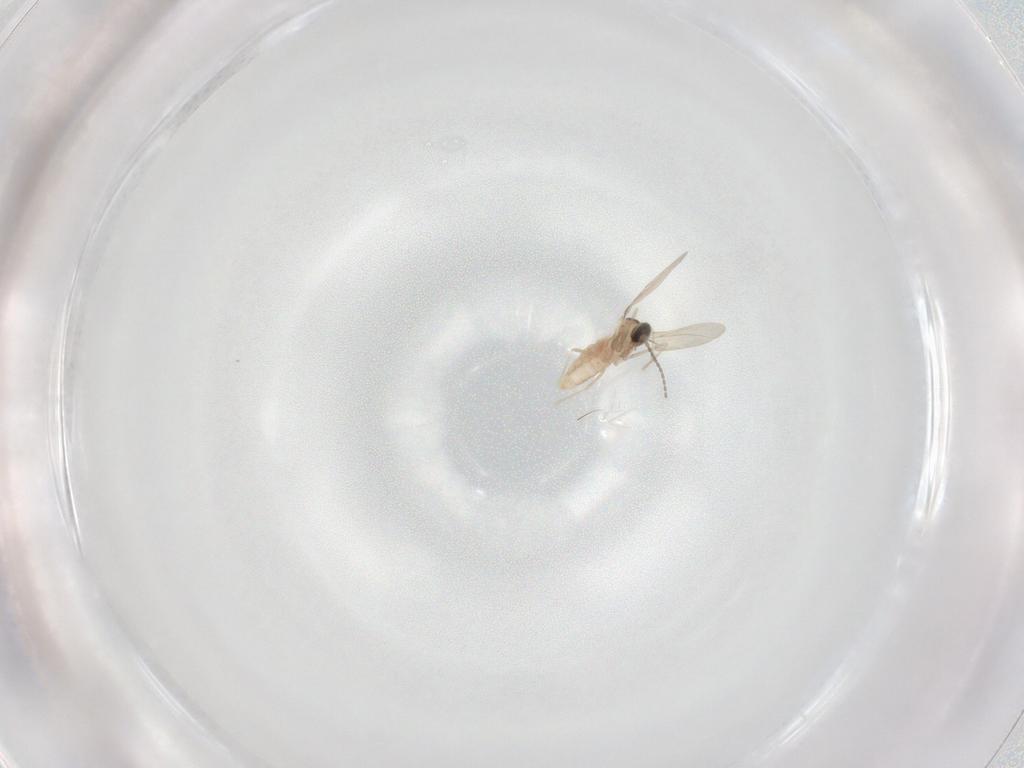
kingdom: Animalia
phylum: Arthropoda
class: Insecta
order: Diptera
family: Cecidomyiidae
